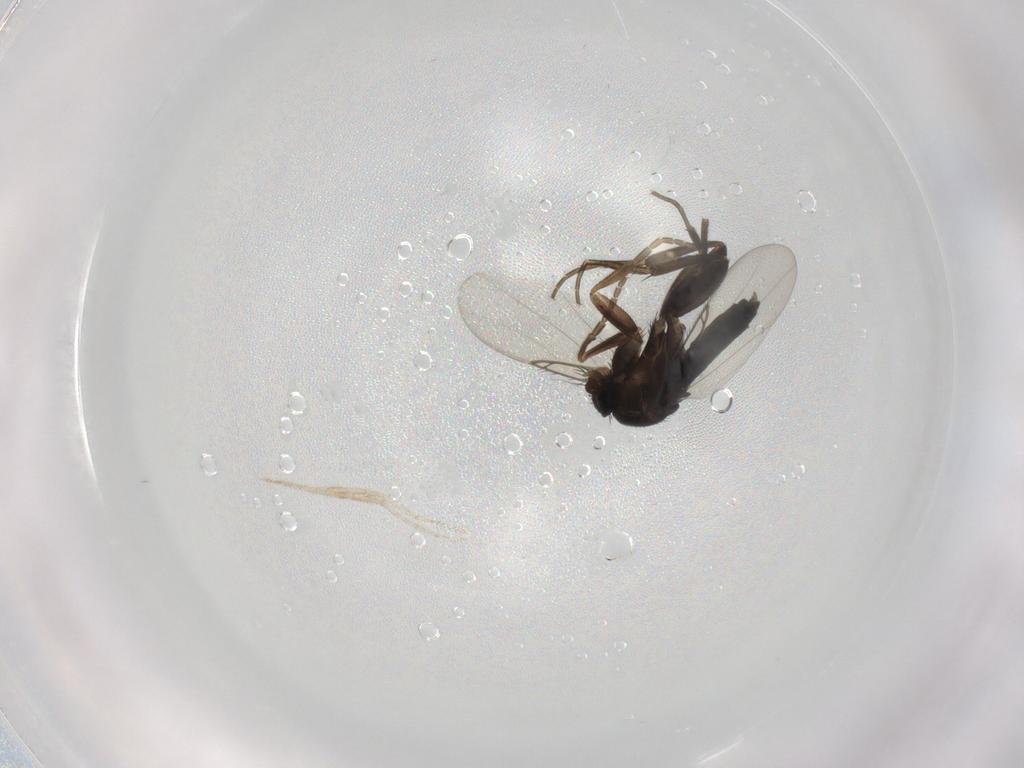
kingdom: Animalia
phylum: Arthropoda
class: Insecta
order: Diptera
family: Phoridae
